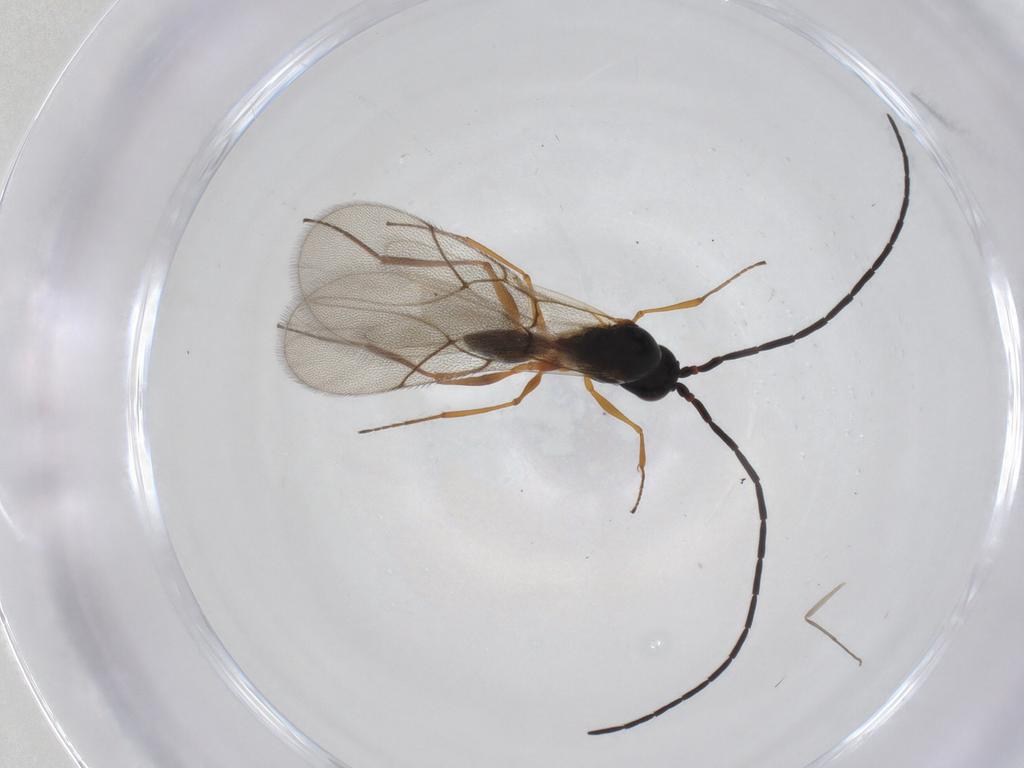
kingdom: Animalia
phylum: Arthropoda
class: Insecta
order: Hymenoptera
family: Figitidae
